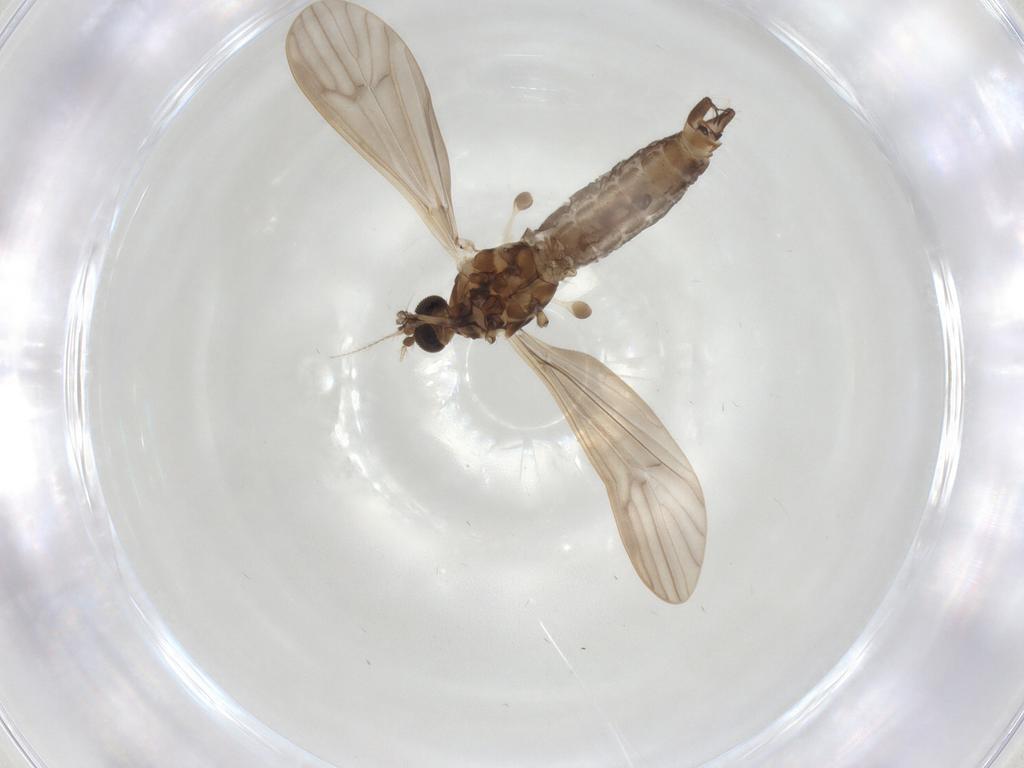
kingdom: Animalia
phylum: Arthropoda
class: Insecta
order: Diptera
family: Limoniidae
